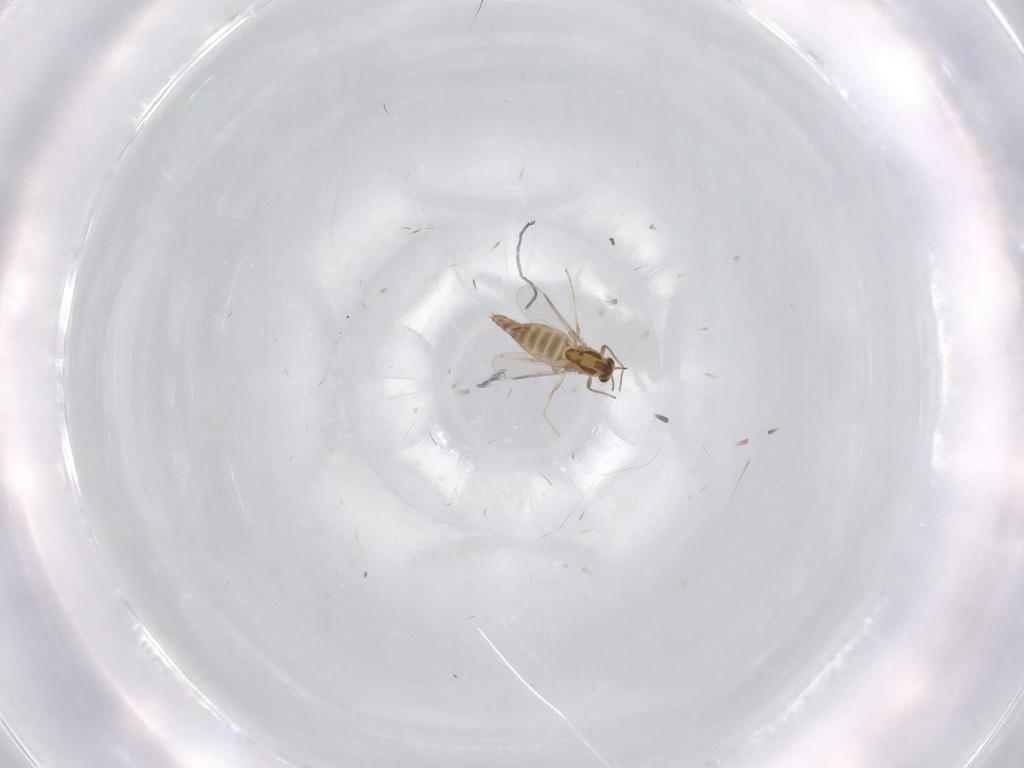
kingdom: Animalia
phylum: Arthropoda
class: Insecta
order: Diptera
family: Chironomidae
